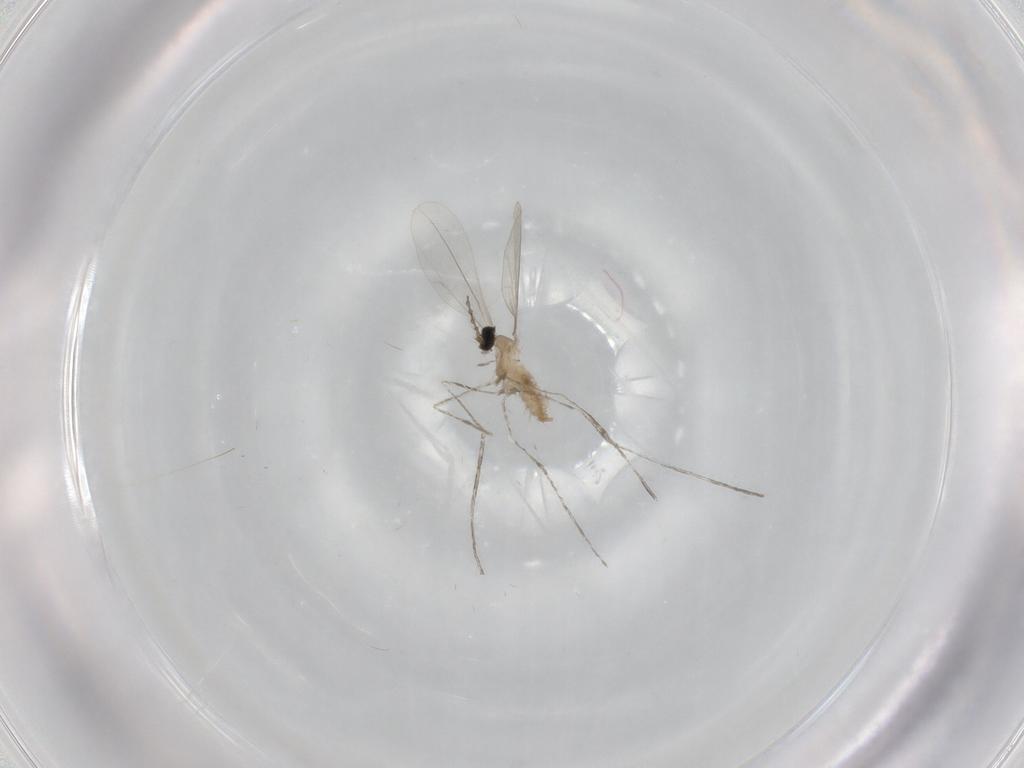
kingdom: Animalia
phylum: Arthropoda
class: Insecta
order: Diptera
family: Cecidomyiidae
